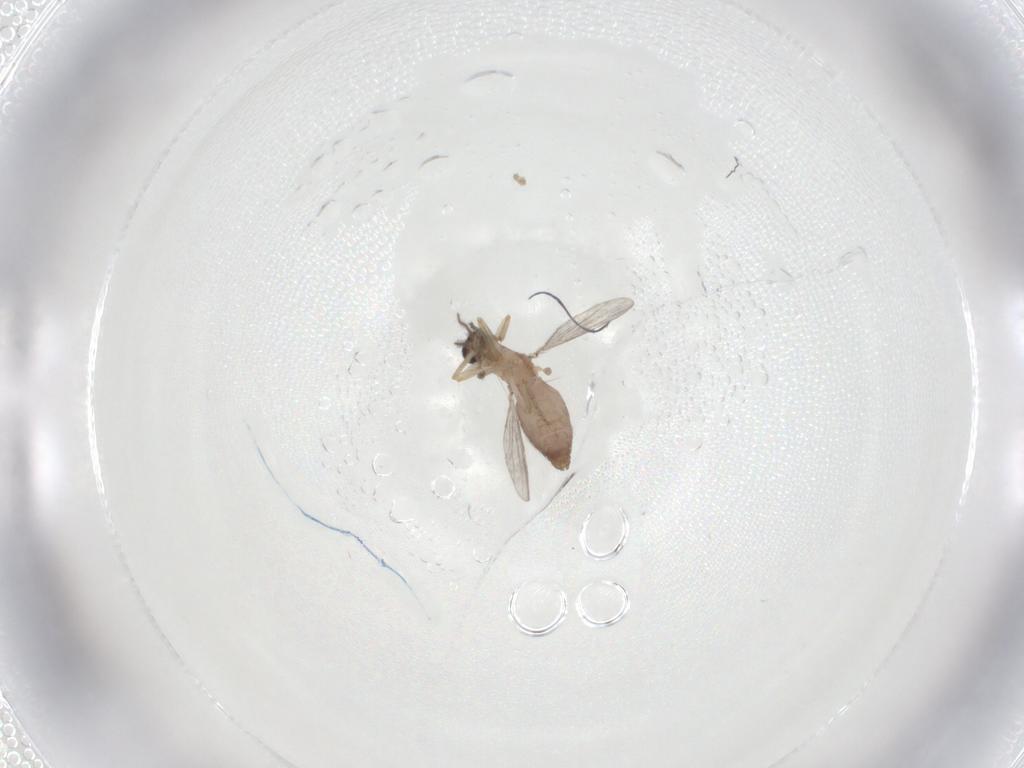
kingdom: Animalia
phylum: Arthropoda
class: Insecta
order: Diptera
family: Ceratopogonidae
